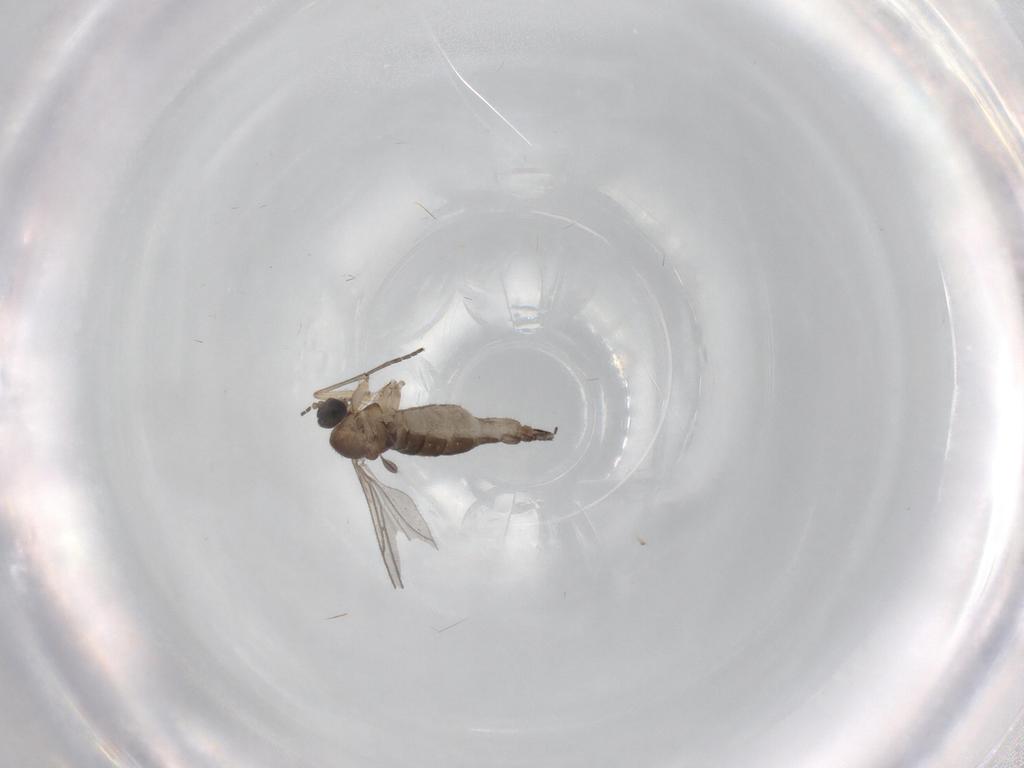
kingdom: Animalia
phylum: Arthropoda
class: Insecta
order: Diptera
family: Sciaridae
